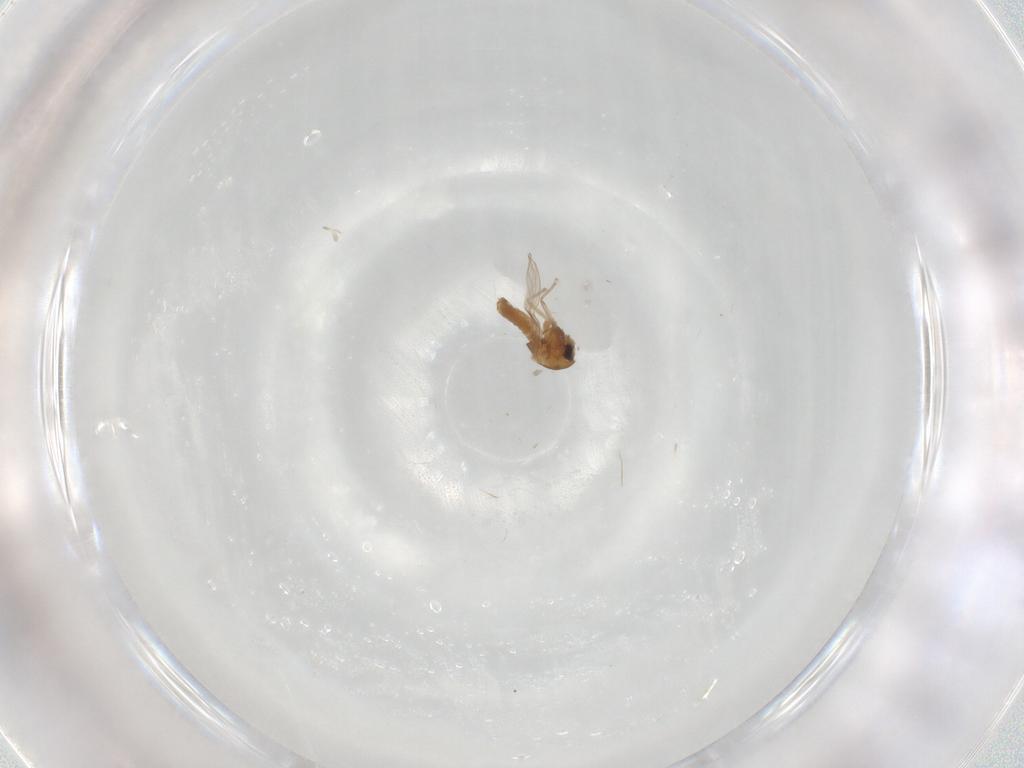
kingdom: Animalia
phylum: Arthropoda
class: Insecta
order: Diptera
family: Chironomidae
